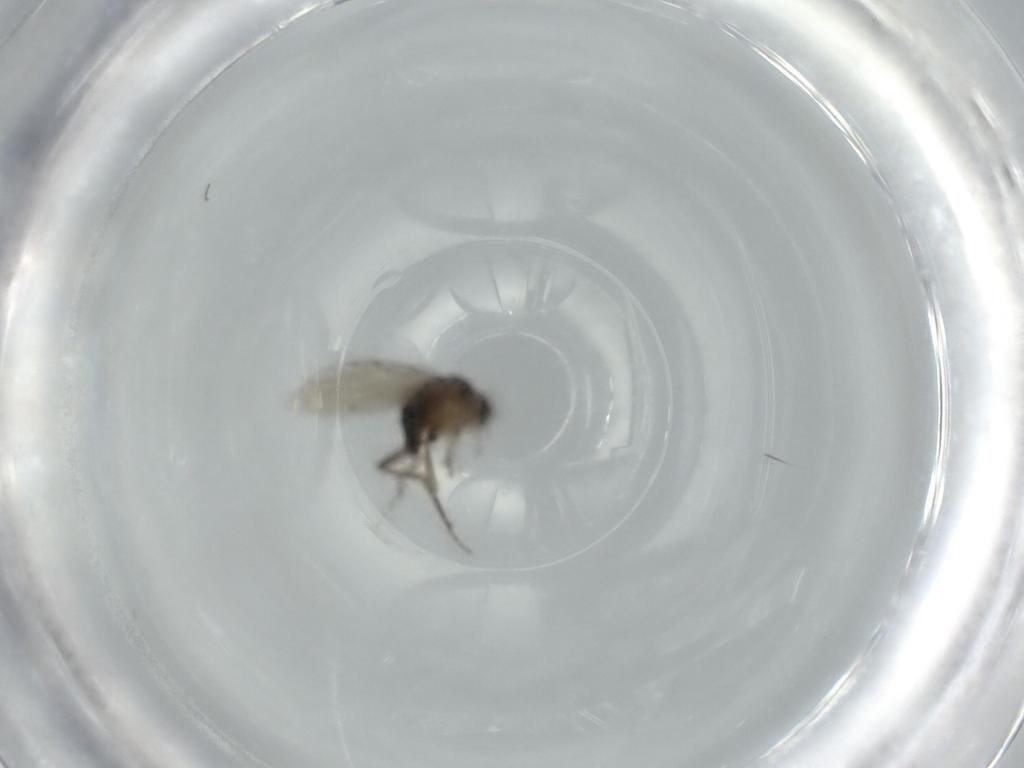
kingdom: Animalia
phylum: Arthropoda
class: Insecta
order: Diptera
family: Phoridae
